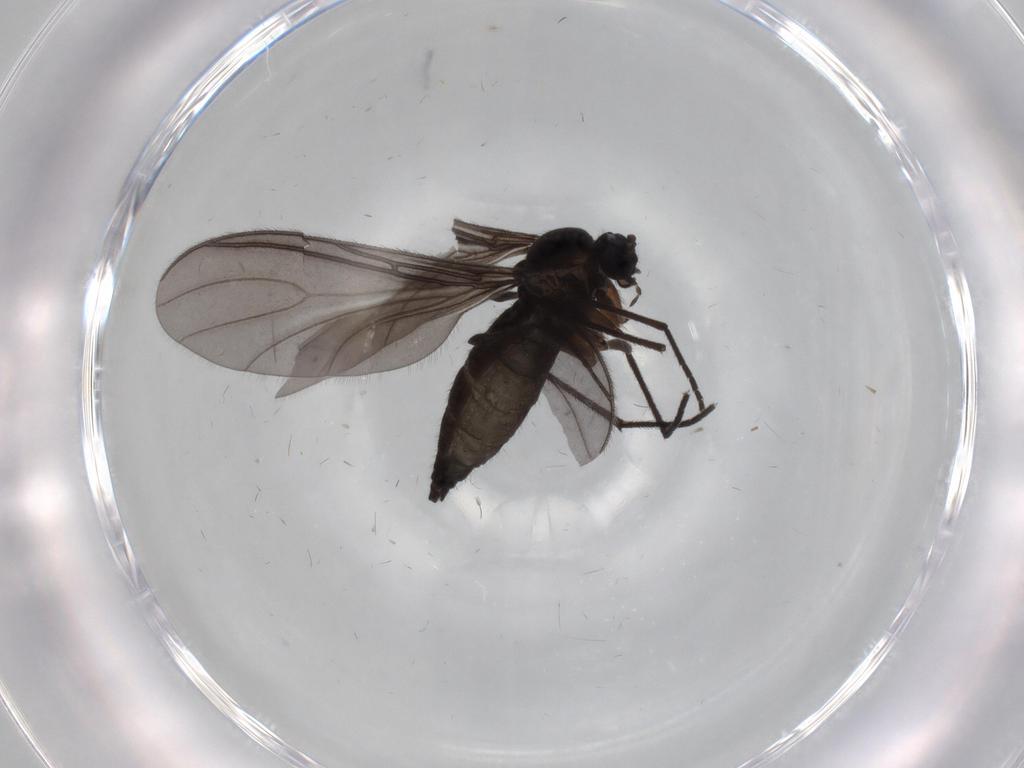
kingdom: Animalia
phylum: Arthropoda
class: Insecta
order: Diptera
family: Sciaridae
